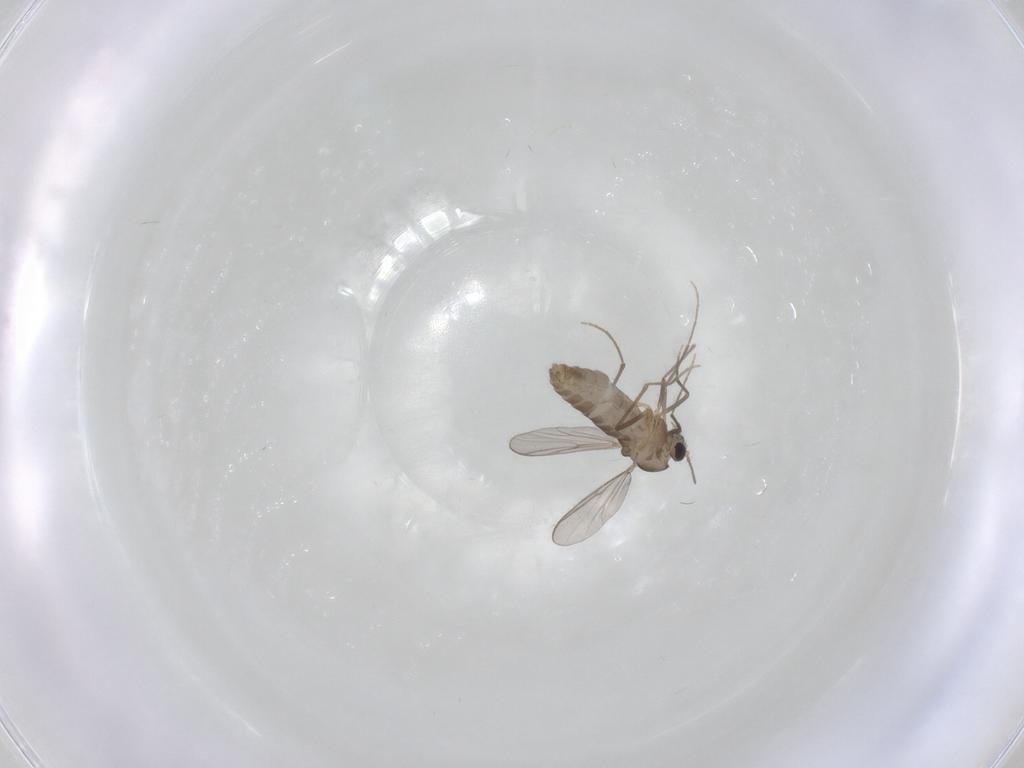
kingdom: Animalia
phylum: Arthropoda
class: Insecta
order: Diptera
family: Chironomidae
